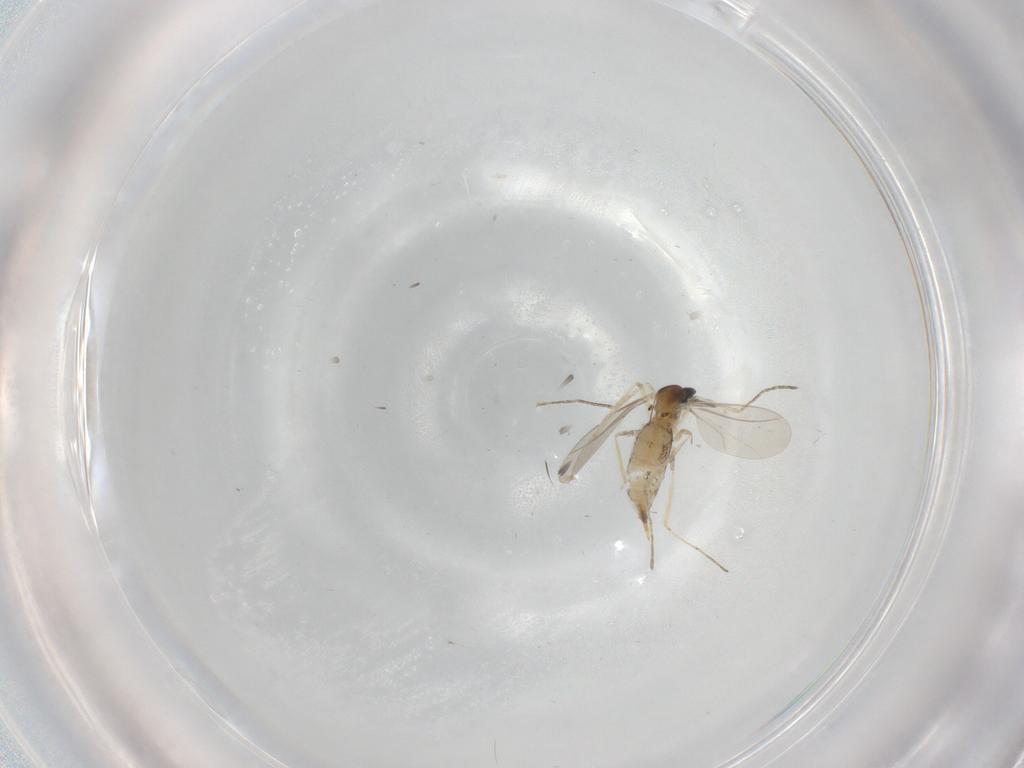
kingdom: Animalia
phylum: Arthropoda
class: Insecta
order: Diptera
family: Cecidomyiidae
